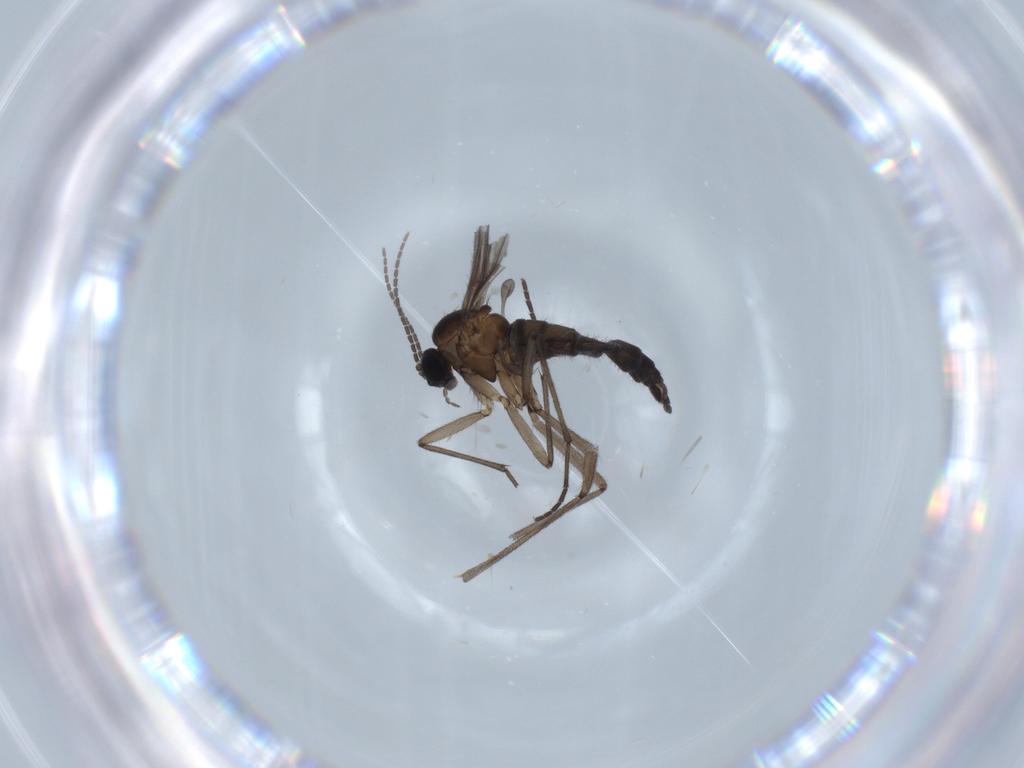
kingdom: Animalia
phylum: Arthropoda
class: Insecta
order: Diptera
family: Sciaridae
